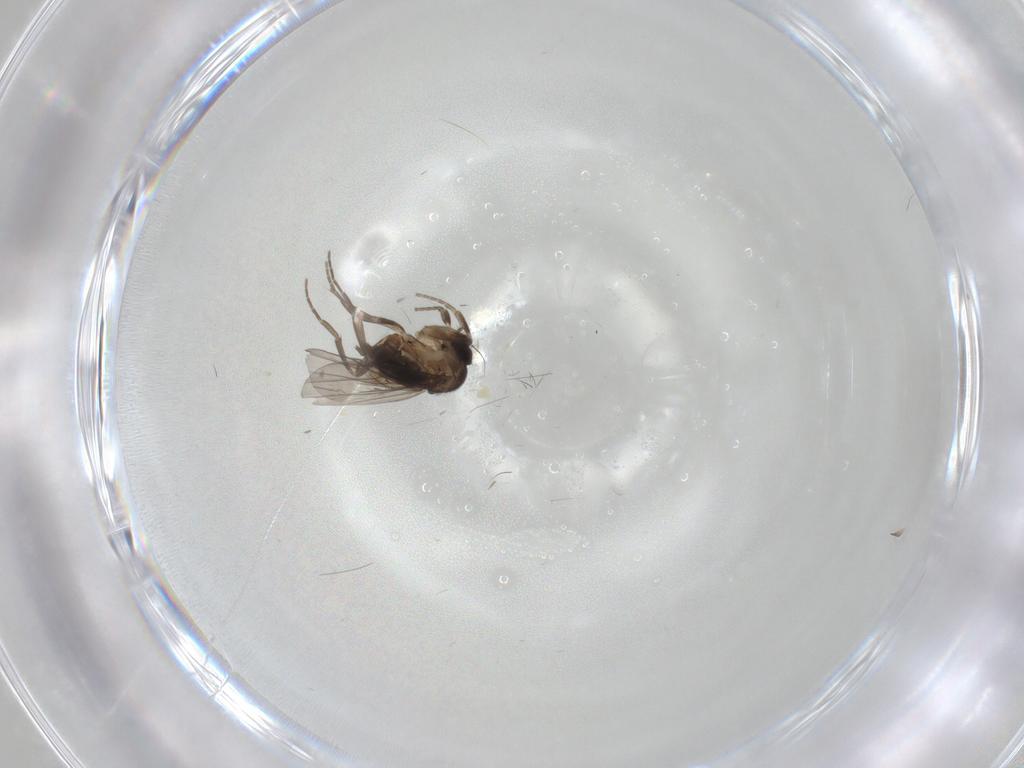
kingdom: Animalia
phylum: Arthropoda
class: Insecta
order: Diptera
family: Phoridae
